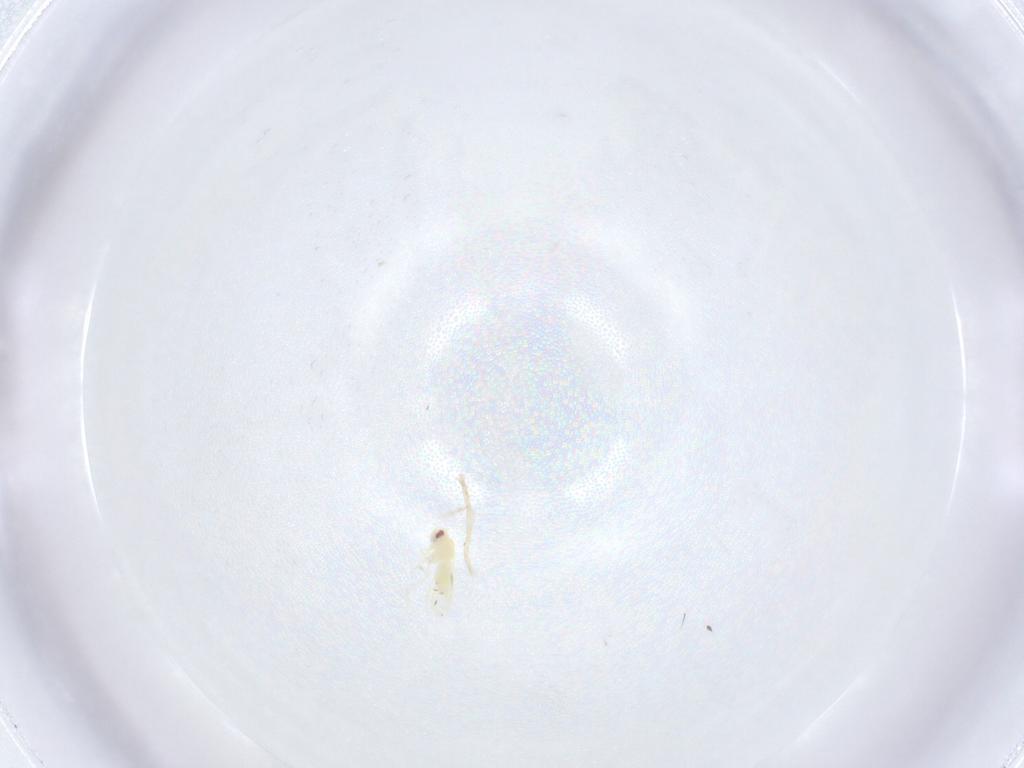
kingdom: Animalia
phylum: Arthropoda
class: Insecta
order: Hemiptera
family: Aleyrodidae
